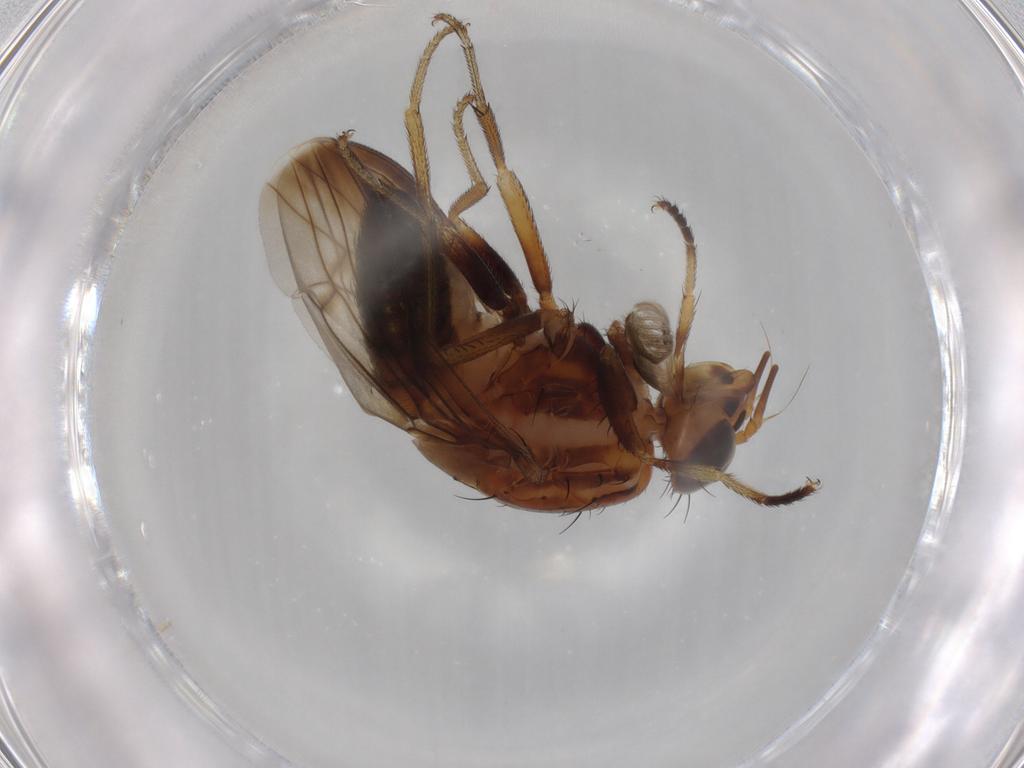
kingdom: Animalia
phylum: Arthropoda
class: Insecta
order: Diptera
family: Lauxaniidae
